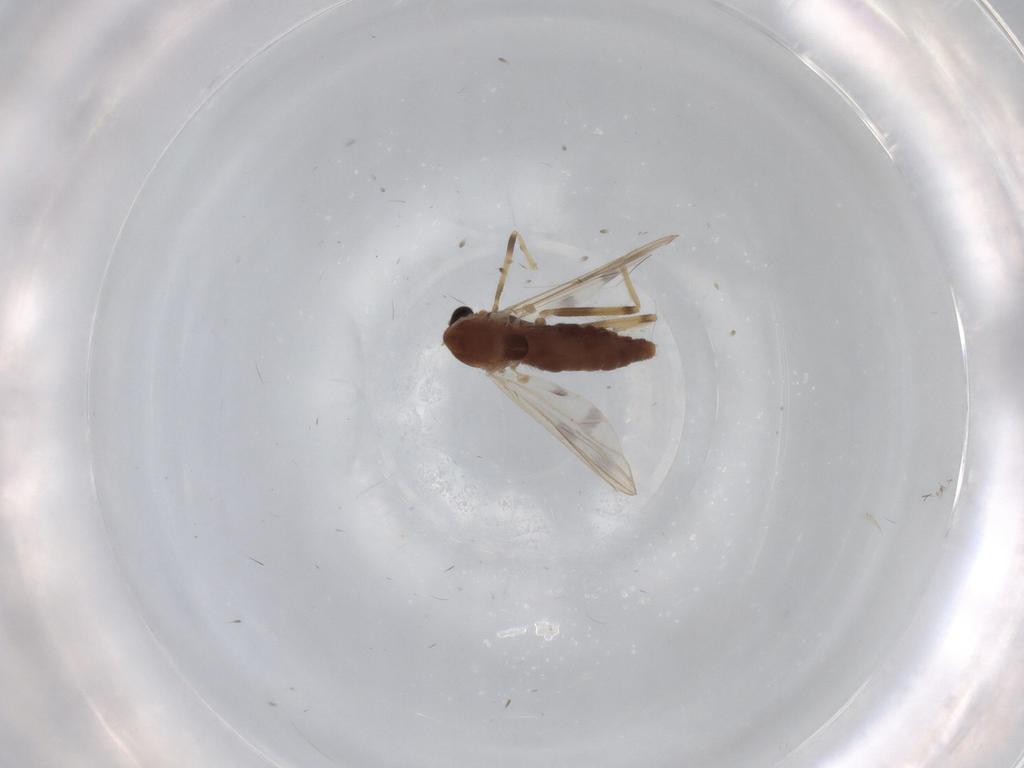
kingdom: Animalia
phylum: Arthropoda
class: Insecta
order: Diptera
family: Chironomidae
